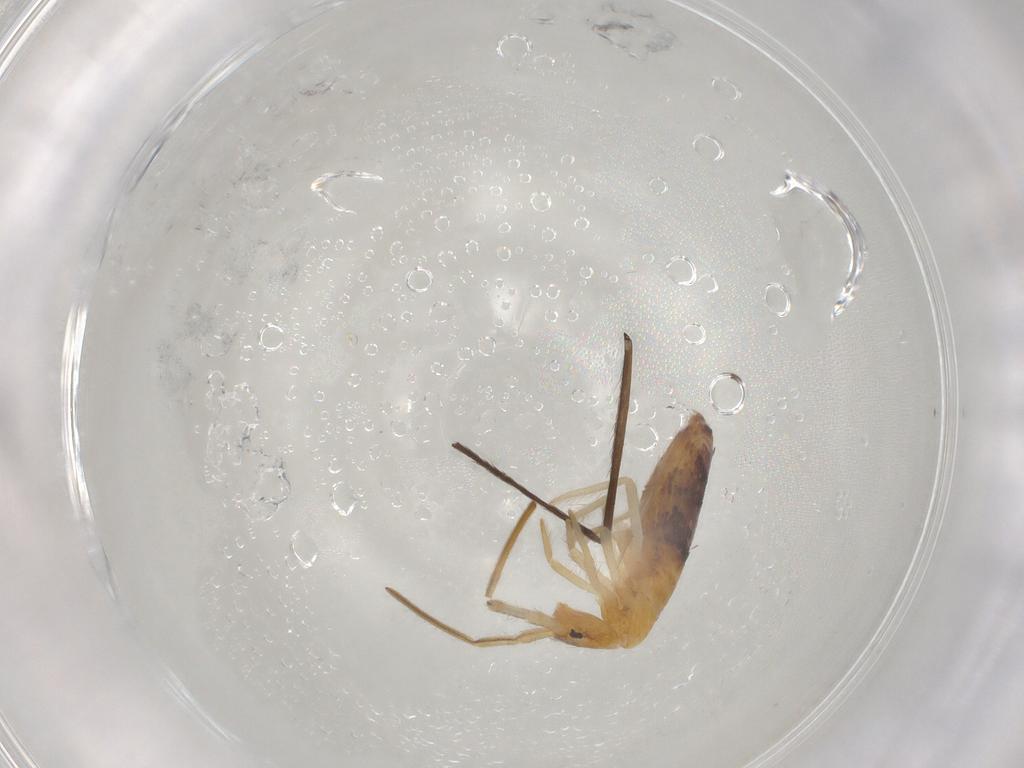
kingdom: Animalia
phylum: Arthropoda
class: Collembola
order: Entomobryomorpha
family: Entomobryidae
